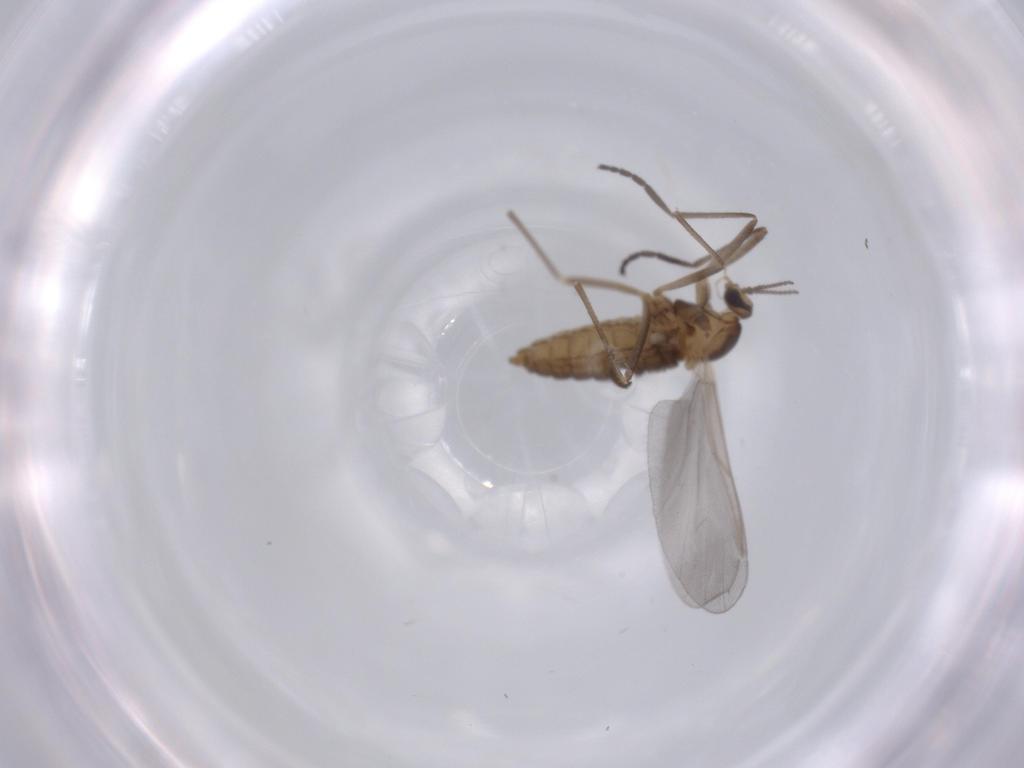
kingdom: Animalia
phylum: Arthropoda
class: Insecta
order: Diptera
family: Cecidomyiidae
